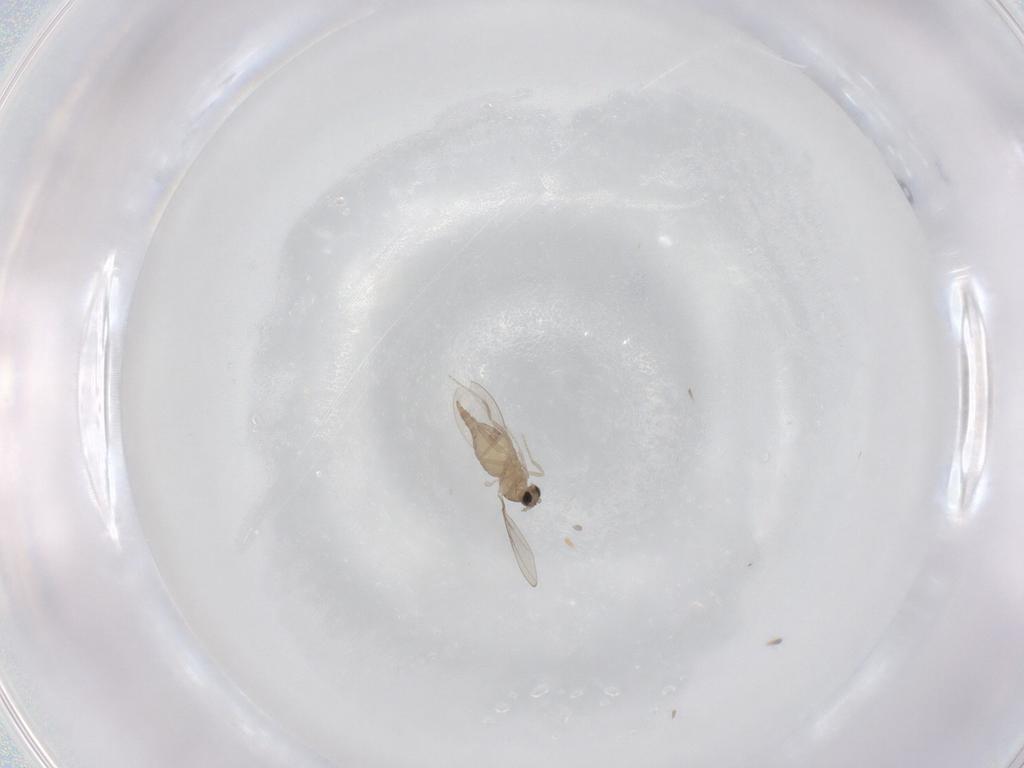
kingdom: Animalia
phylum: Arthropoda
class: Insecta
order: Diptera
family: Cecidomyiidae
